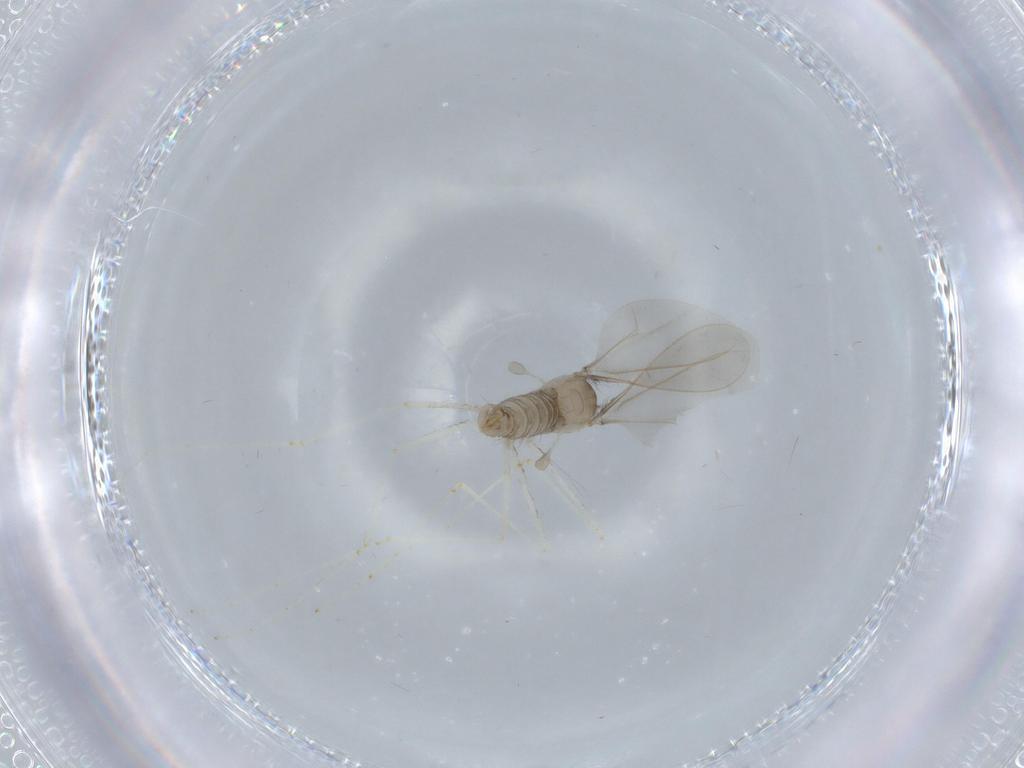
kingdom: Animalia
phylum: Arthropoda
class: Insecta
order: Diptera
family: Cecidomyiidae
